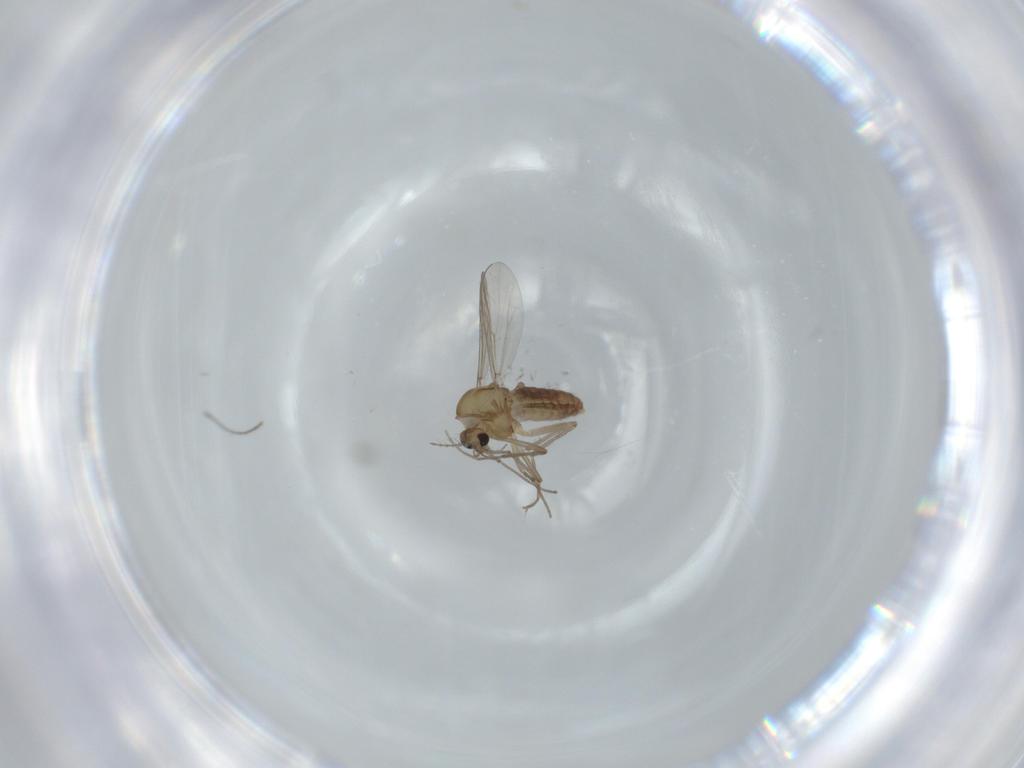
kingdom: Animalia
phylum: Arthropoda
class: Insecta
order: Diptera
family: Chironomidae
